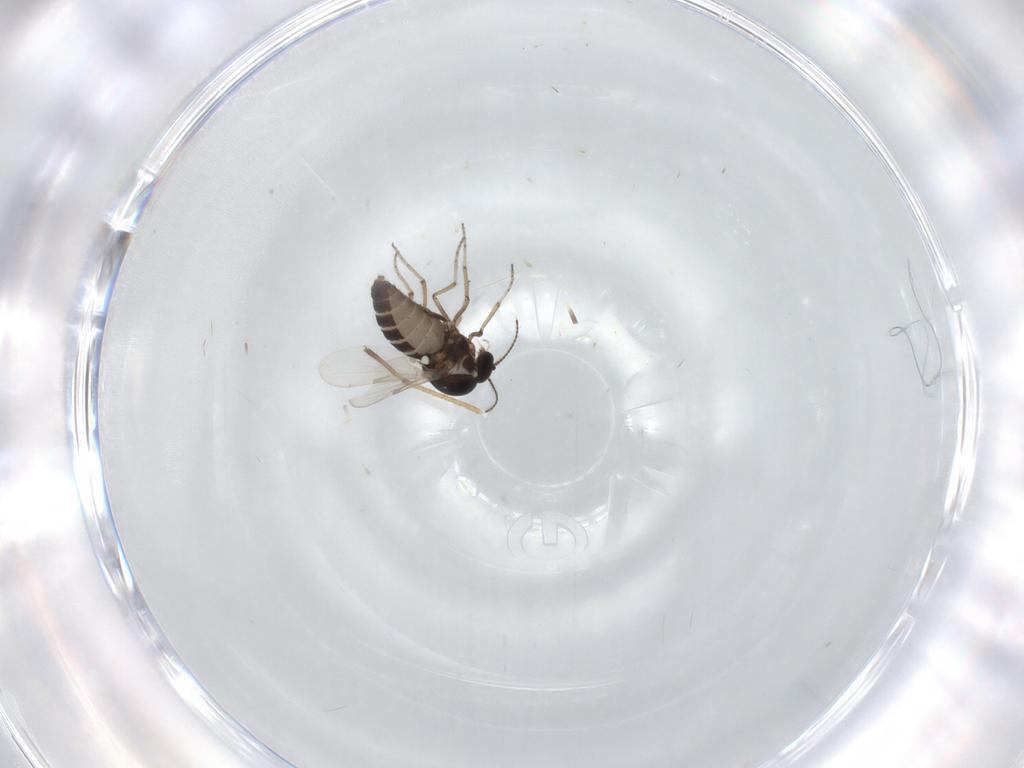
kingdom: Animalia
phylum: Arthropoda
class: Insecta
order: Diptera
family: Ceratopogonidae
